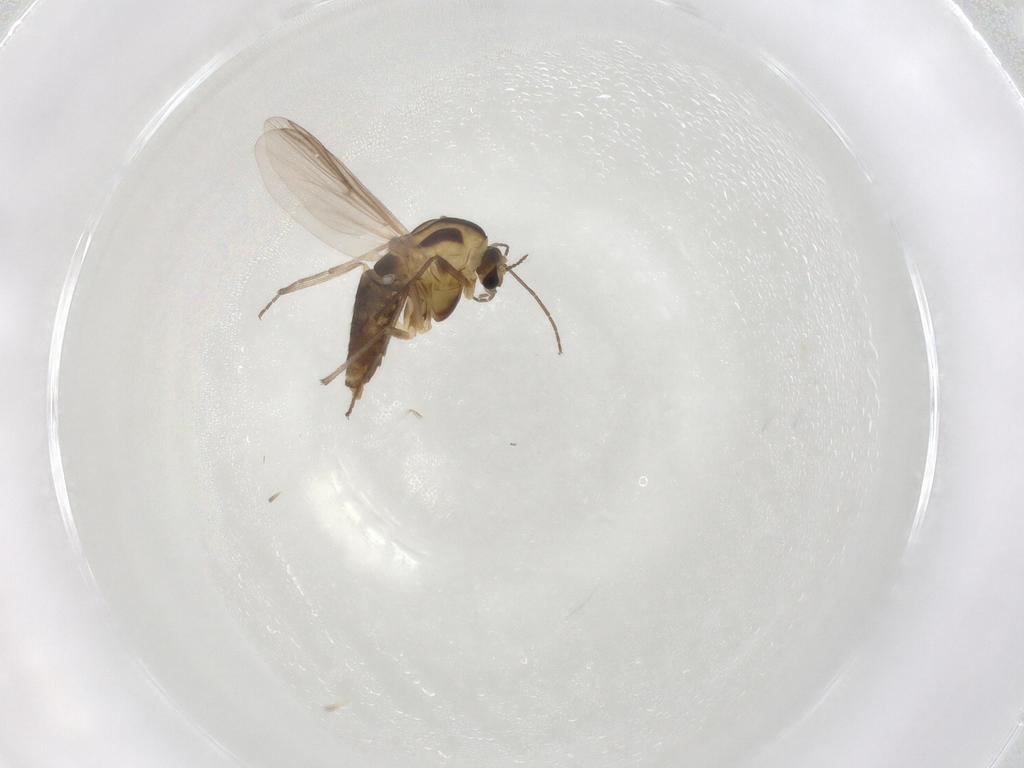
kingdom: Animalia
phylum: Arthropoda
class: Insecta
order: Diptera
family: Chironomidae
